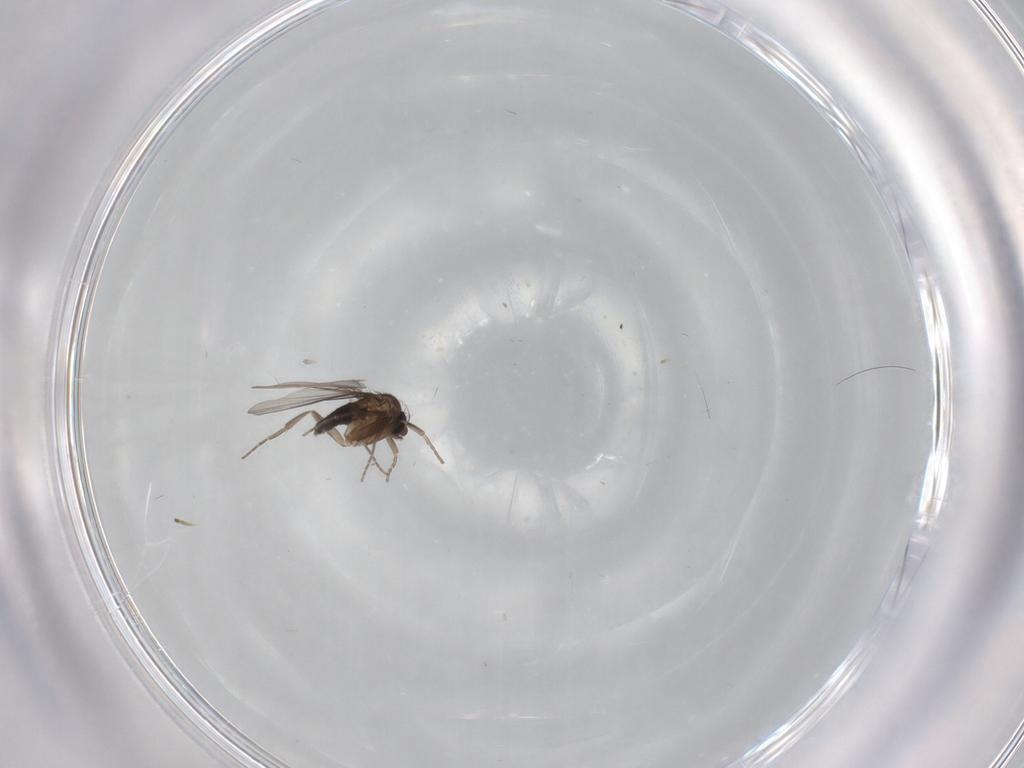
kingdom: Animalia
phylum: Arthropoda
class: Insecta
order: Diptera
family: Phoridae
